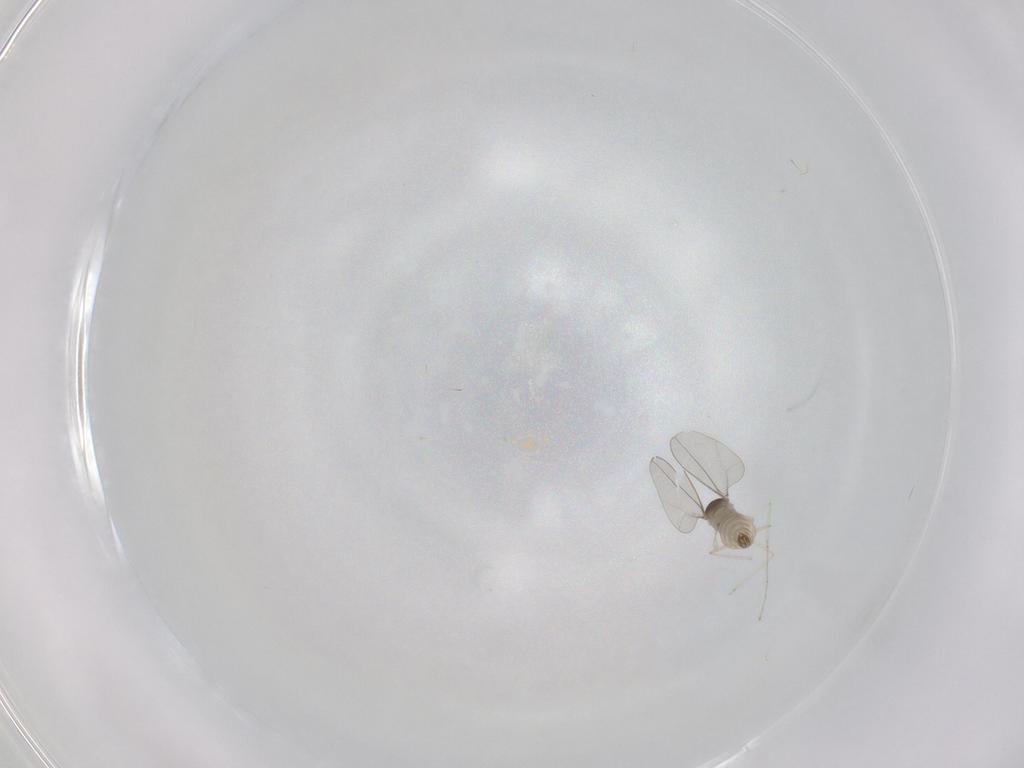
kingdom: Animalia
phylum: Arthropoda
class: Insecta
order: Diptera
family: Cecidomyiidae
